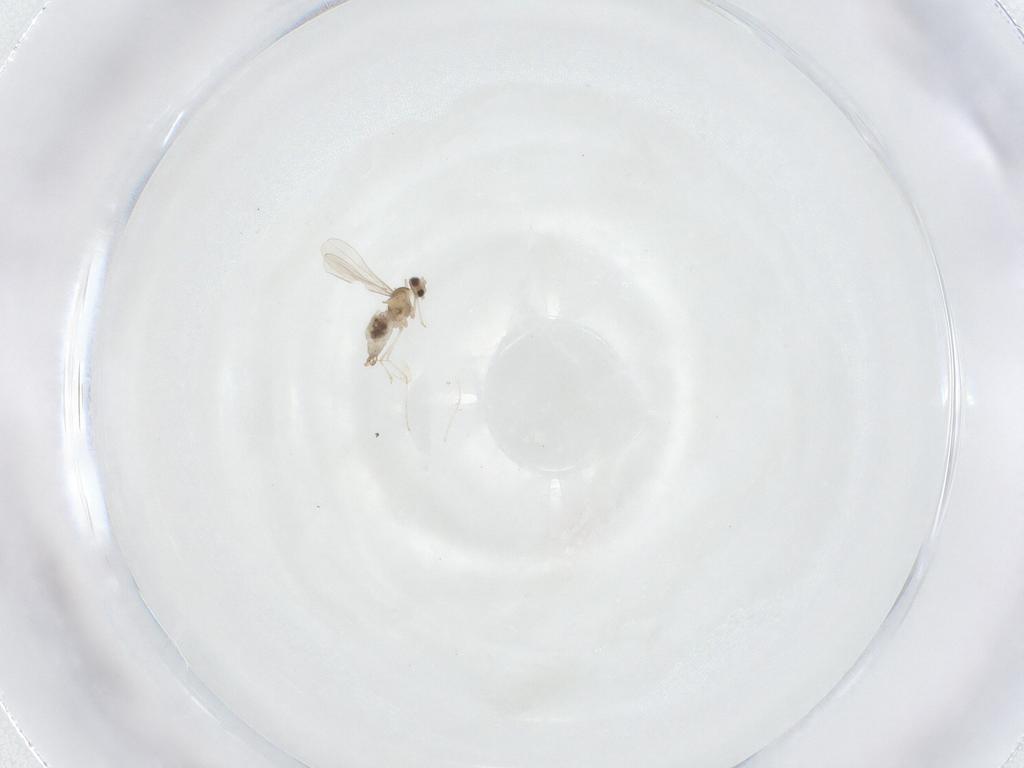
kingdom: Animalia
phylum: Arthropoda
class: Insecta
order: Diptera
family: Cecidomyiidae
